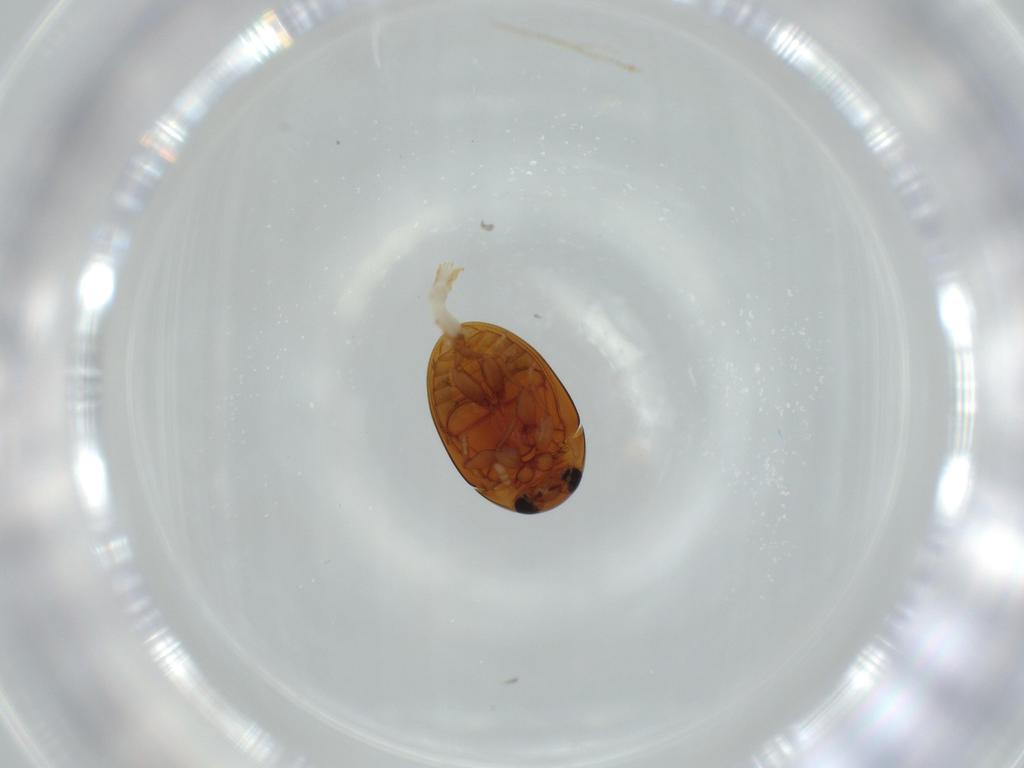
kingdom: Animalia
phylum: Arthropoda
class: Insecta
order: Coleoptera
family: Phalacridae
